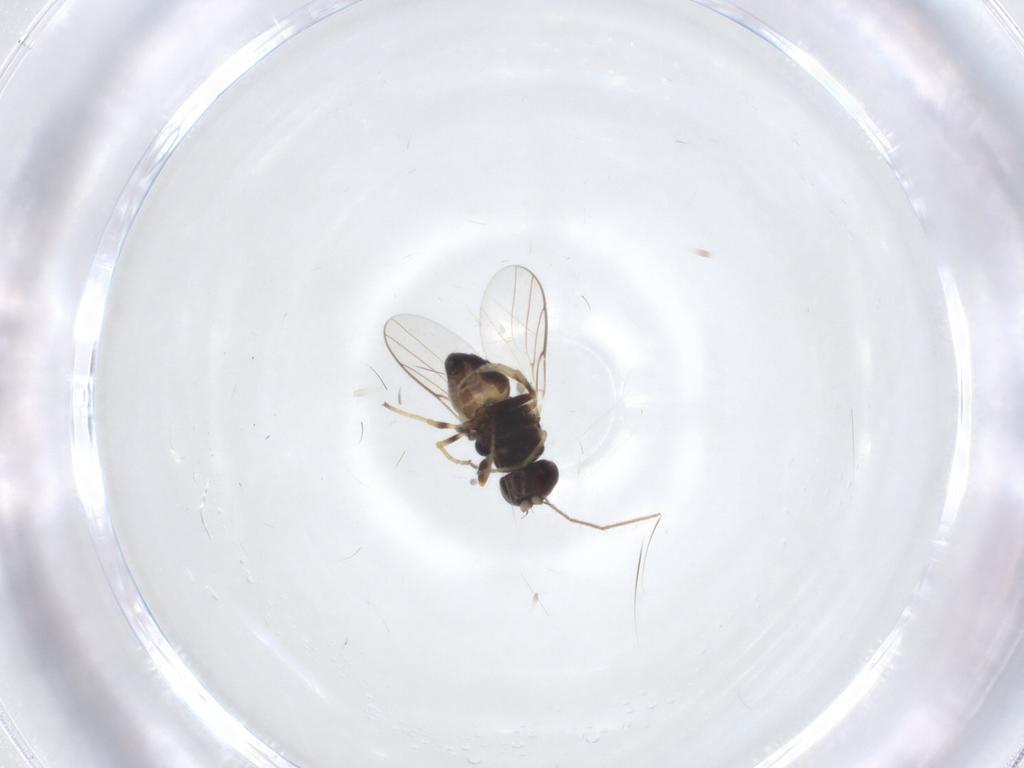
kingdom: Animalia
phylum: Arthropoda
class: Insecta
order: Diptera
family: Chloropidae
